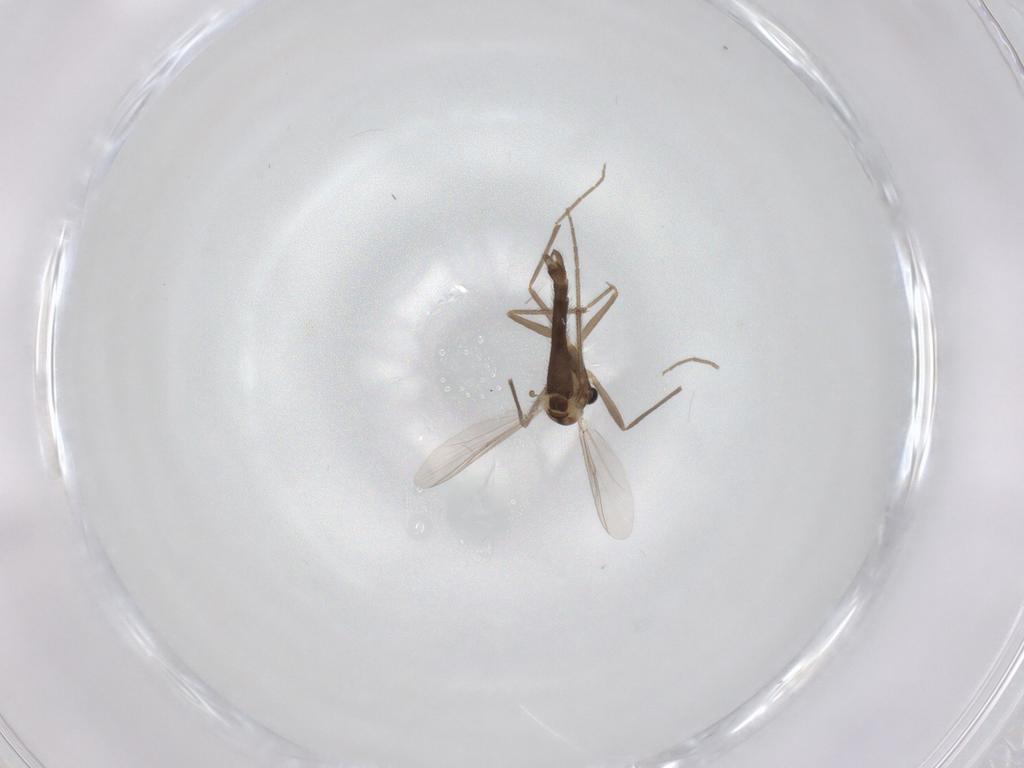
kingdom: Animalia
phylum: Arthropoda
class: Insecta
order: Diptera
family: Chironomidae
